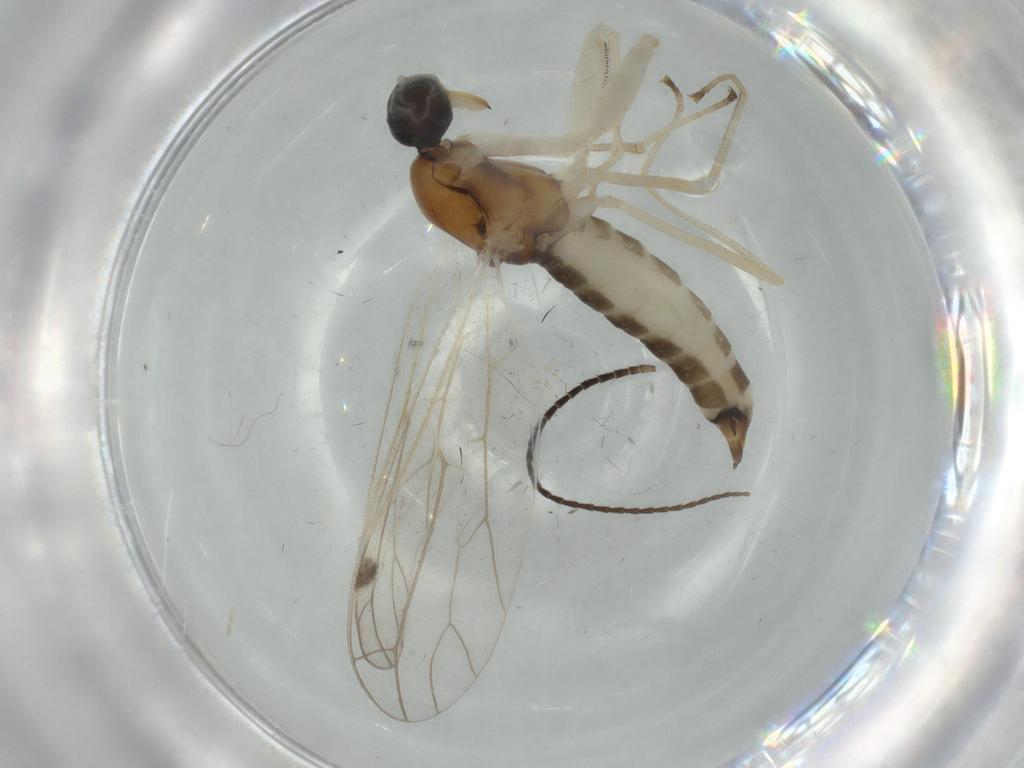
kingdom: Animalia
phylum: Arthropoda
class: Insecta
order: Diptera
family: Empididae
